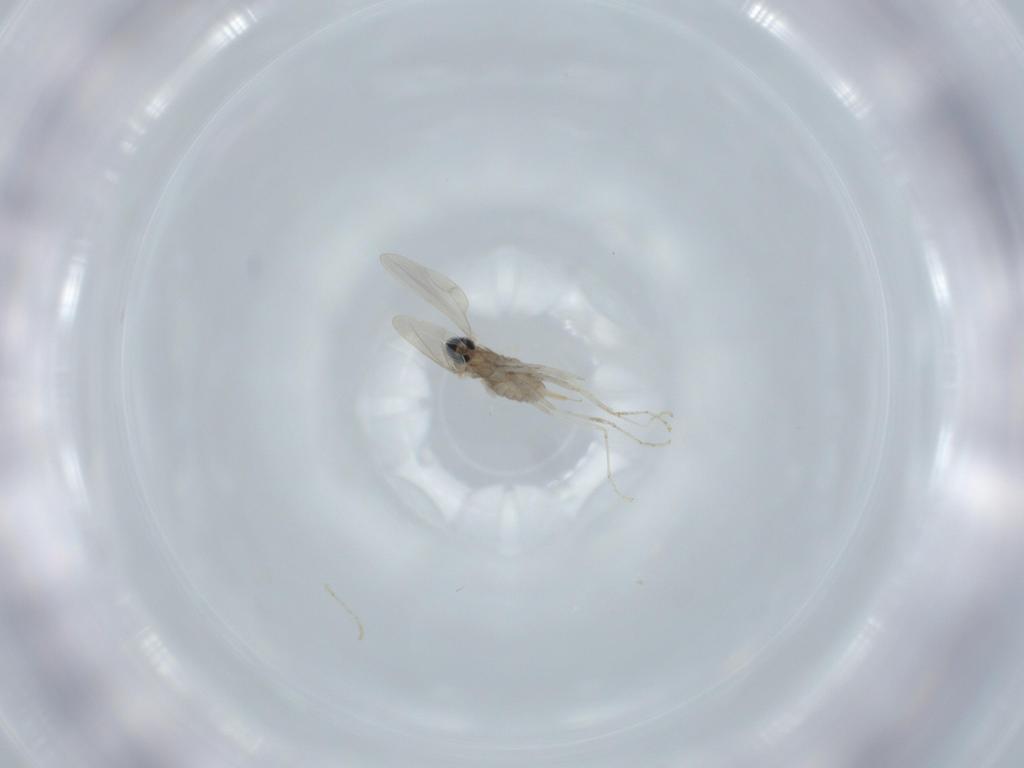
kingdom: Animalia
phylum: Arthropoda
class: Insecta
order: Diptera
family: Cecidomyiidae
